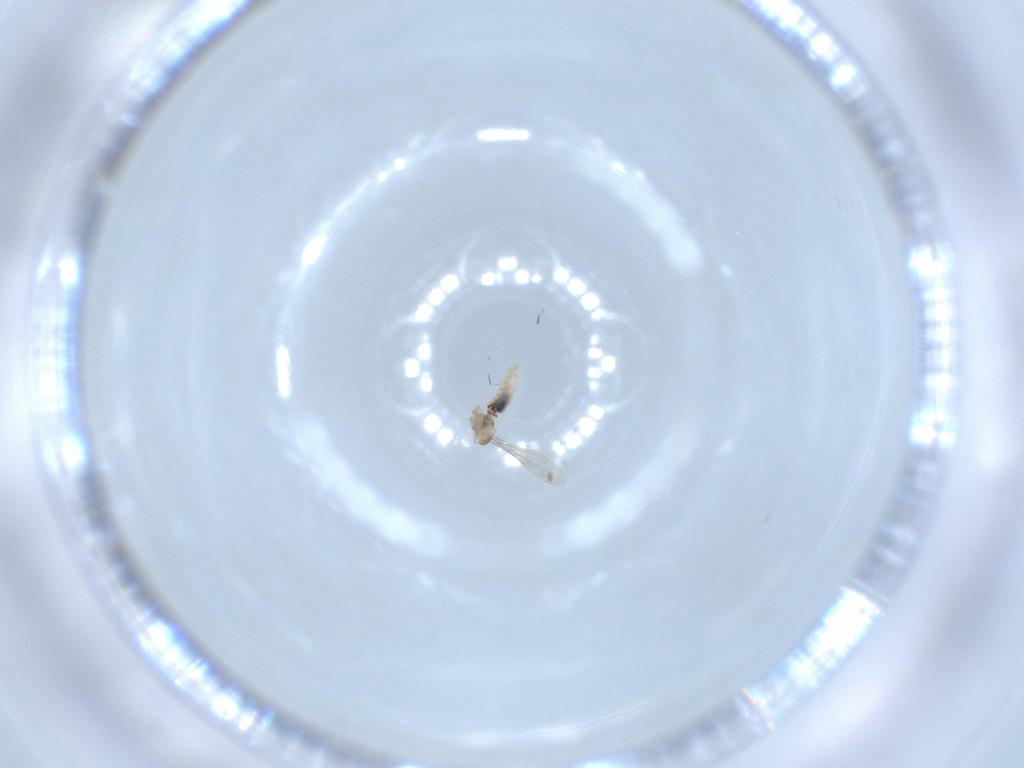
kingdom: Animalia
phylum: Arthropoda
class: Insecta
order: Diptera
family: Cecidomyiidae
